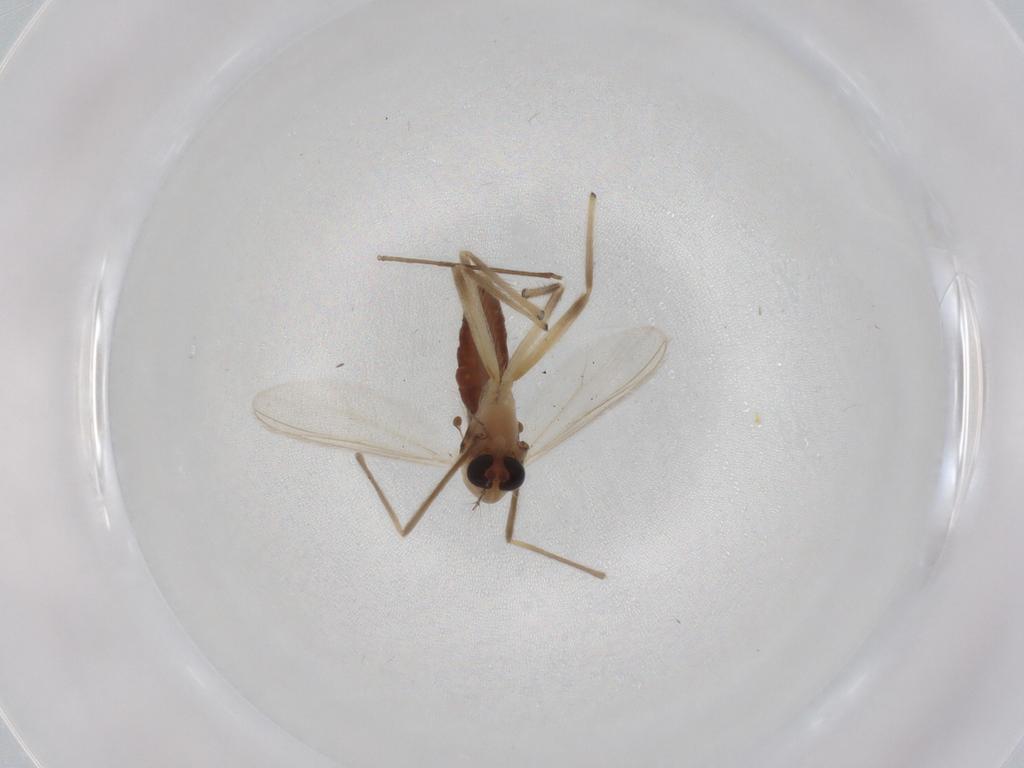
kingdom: Animalia
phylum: Arthropoda
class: Insecta
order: Diptera
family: Chironomidae
